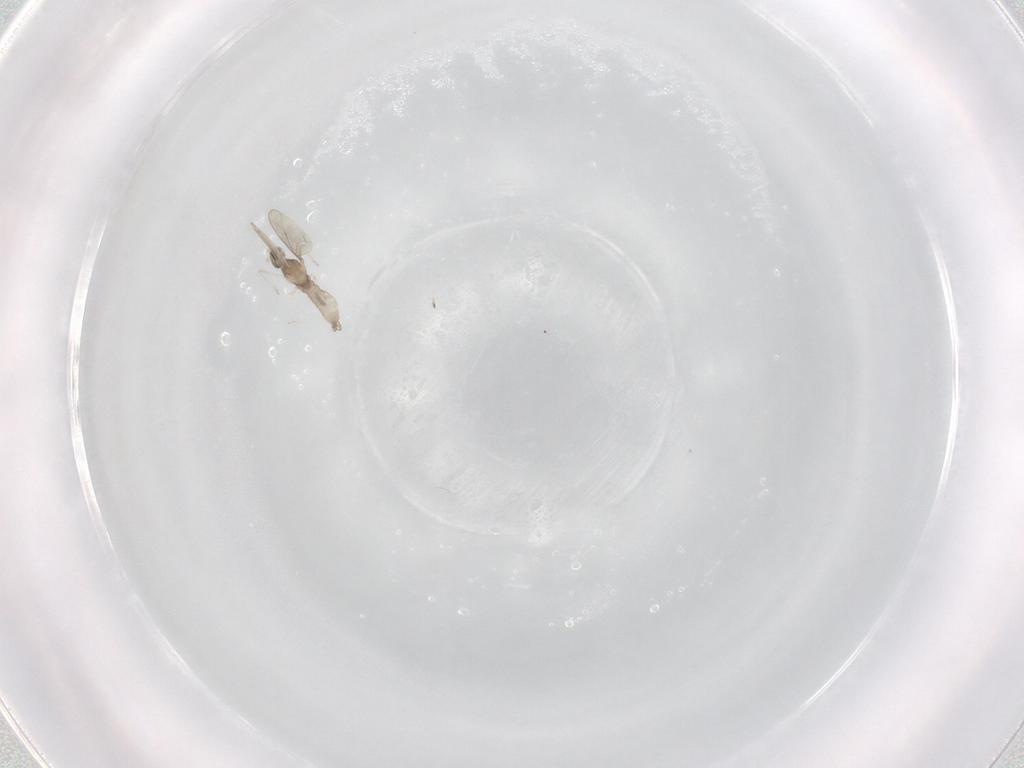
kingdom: Animalia
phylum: Arthropoda
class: Insecta
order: Diptera
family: Cecidomyiidae
